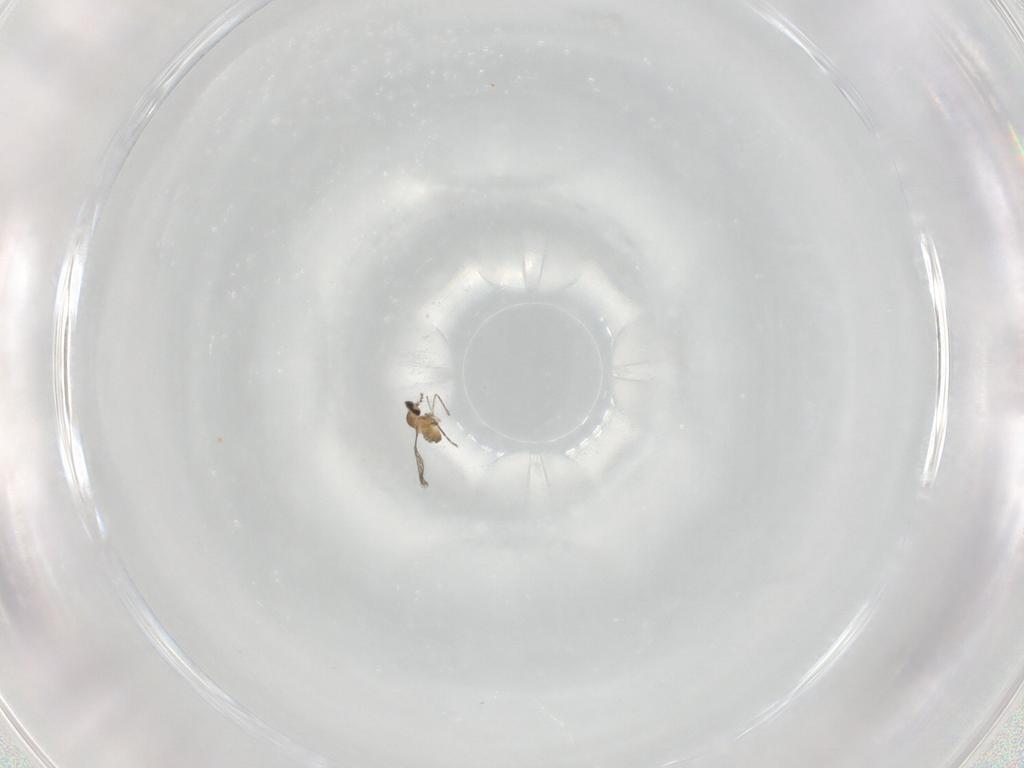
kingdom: Animalia
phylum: Arthropoda
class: Insecta
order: Diptera
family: Cecidomyiidae
